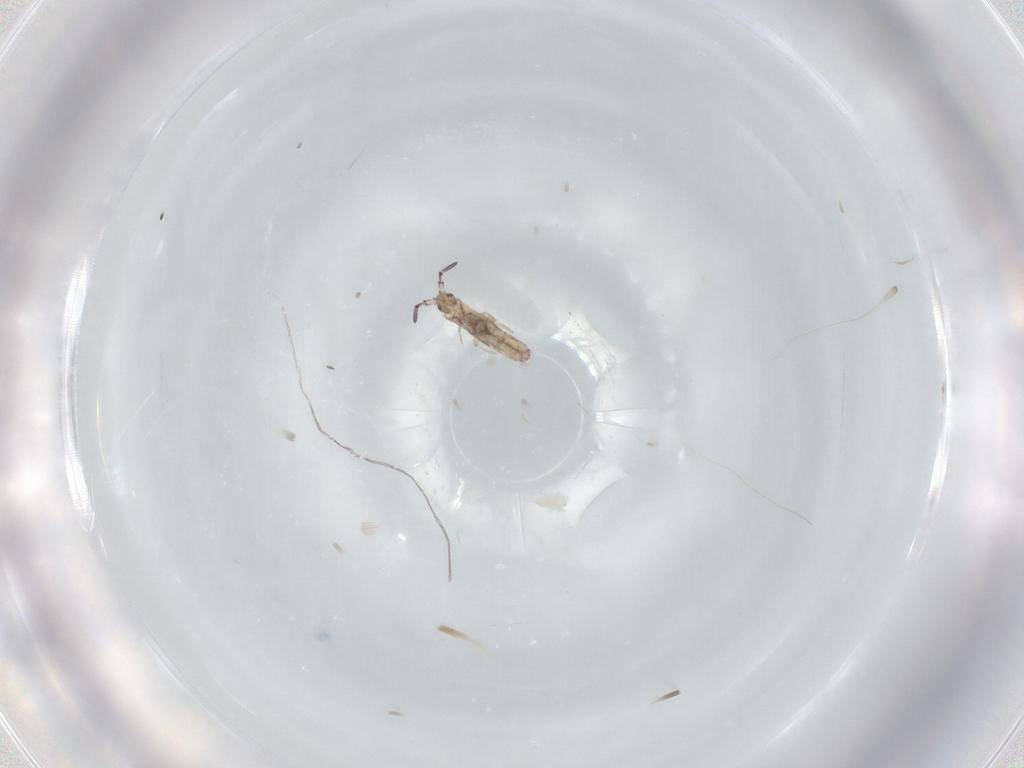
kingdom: Animalia
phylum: Arthropoda
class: Collembola
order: Entomobryomorpha
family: Entomobryidae
